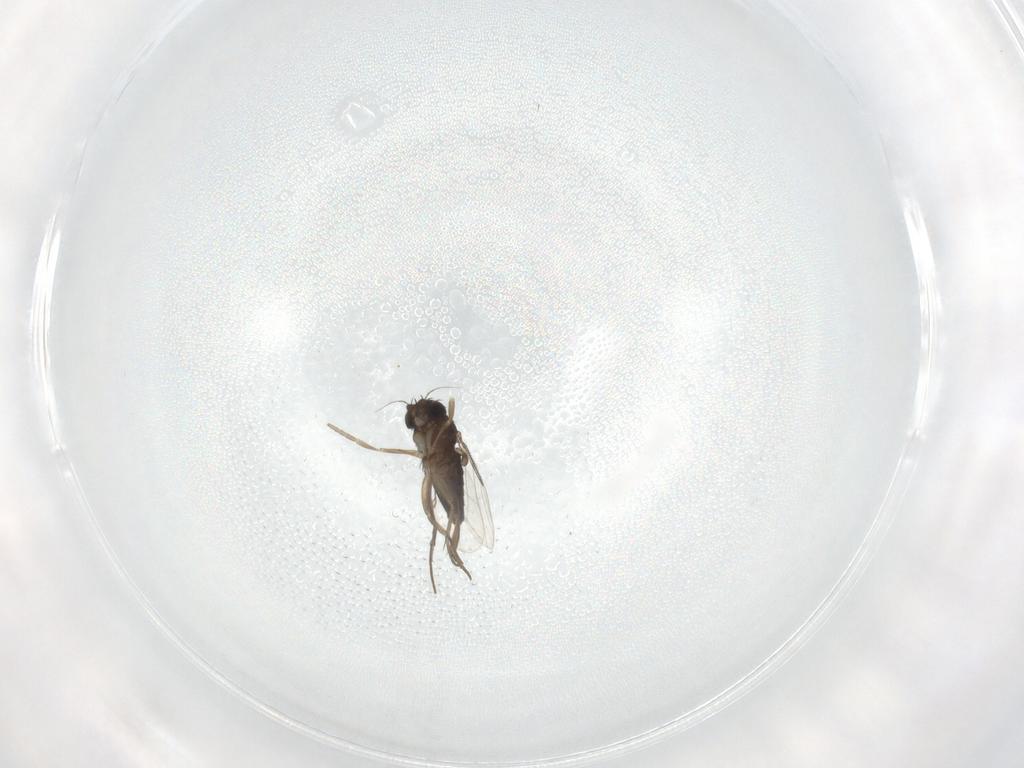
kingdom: Animalia
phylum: Arthropoda
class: Insecta
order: Diptera
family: Phoridae
